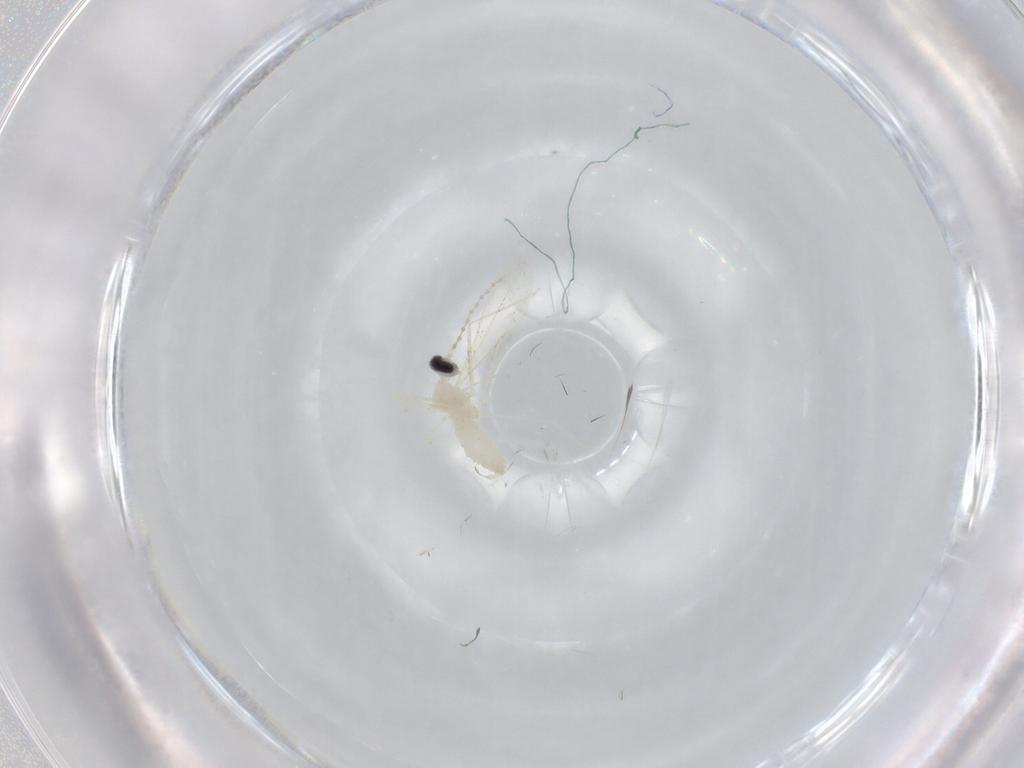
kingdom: Animalia
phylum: Arthropoda
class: Insecta
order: Diptera
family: Cecidomyiidae
